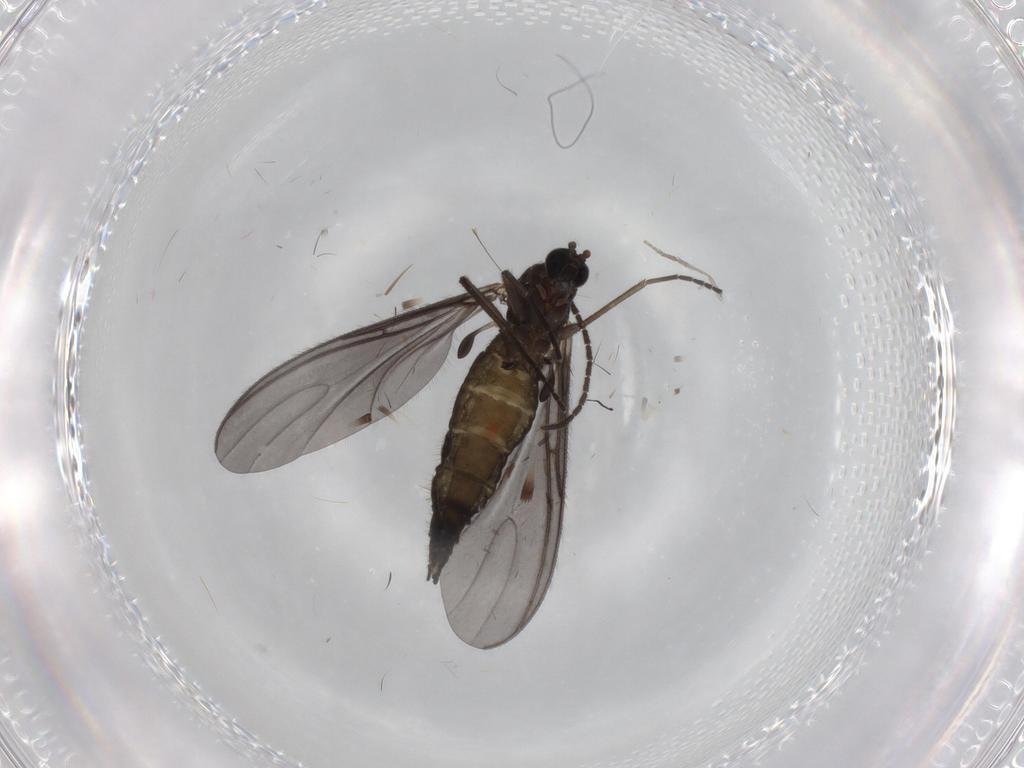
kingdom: Animalia
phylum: Arthropoda
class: Insecta
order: Diptera
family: Sciaridae
